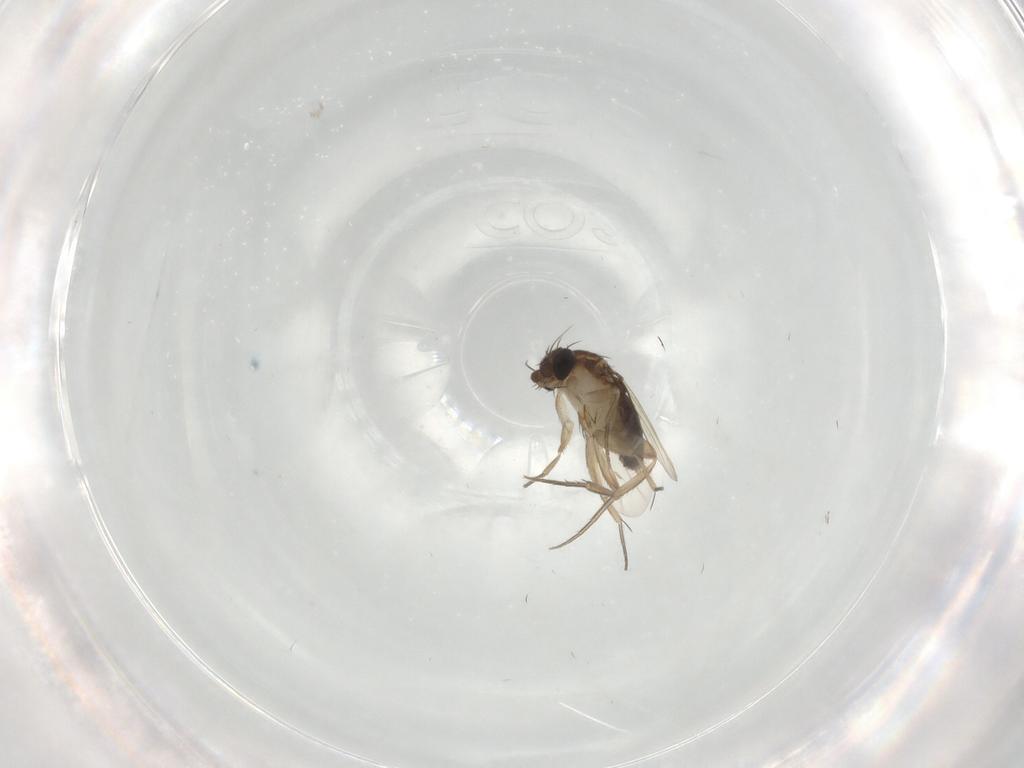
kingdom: Animalia
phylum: Arthropoda
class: Insecta
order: Diptera
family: Phoridae
